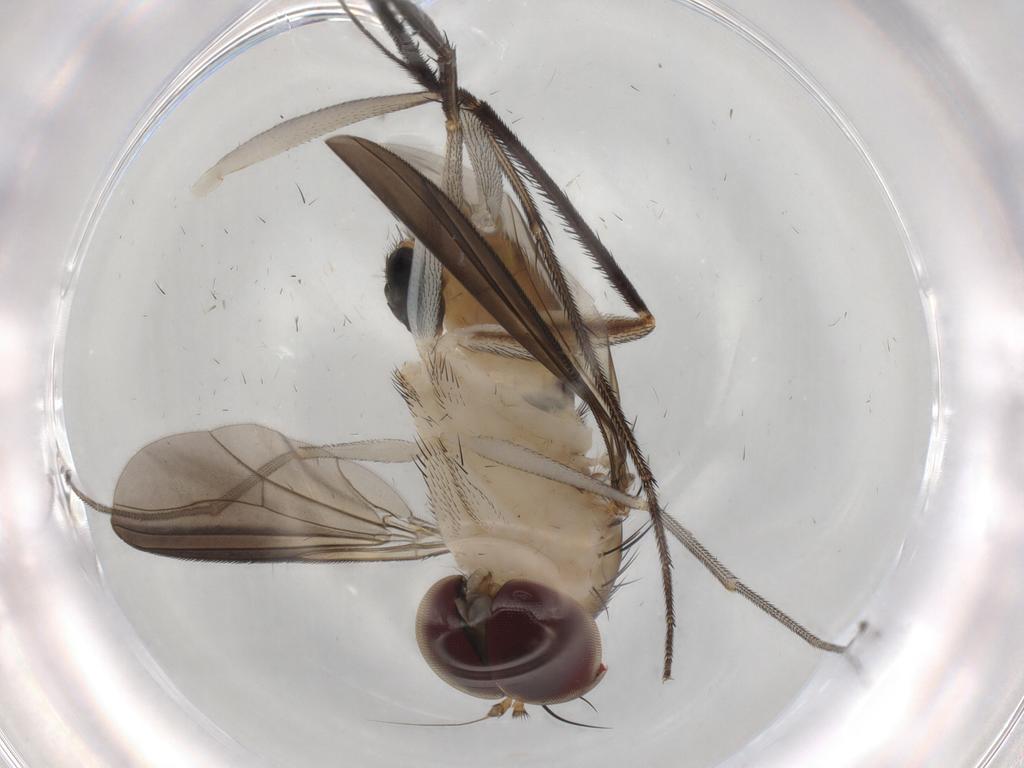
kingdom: Animalia
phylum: Arthropoda
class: Insecta
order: Diptera
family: Dolichopodidae
